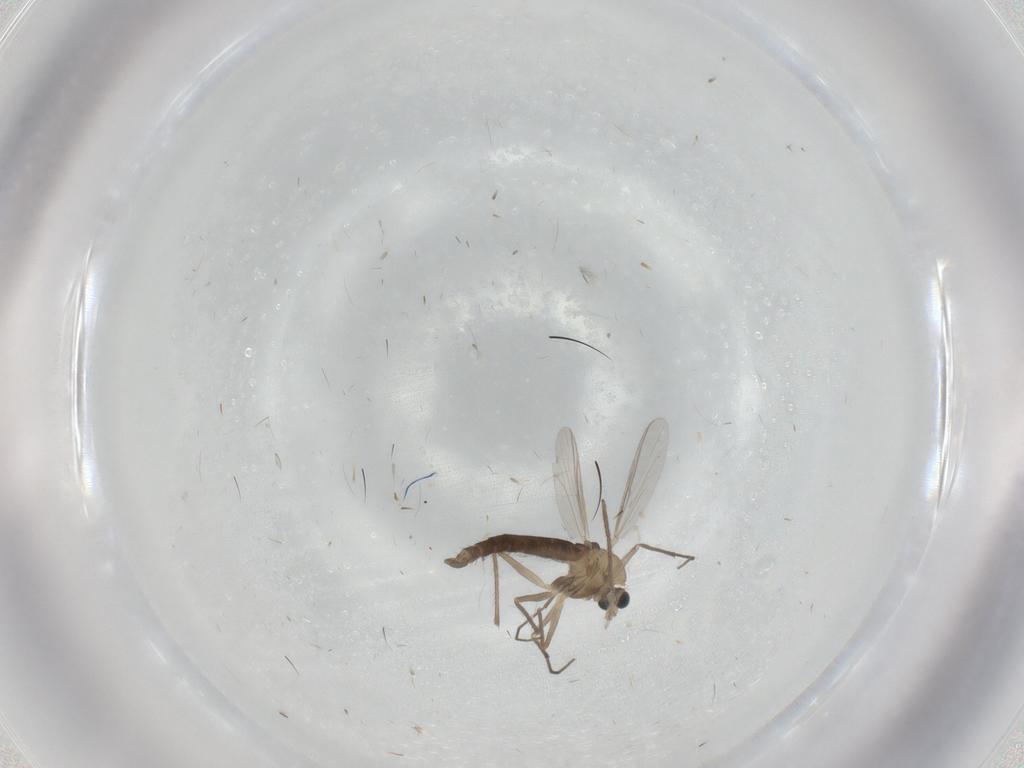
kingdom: Animalia
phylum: Arthropoda
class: Insecta
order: Diptera
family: Chironomidae
